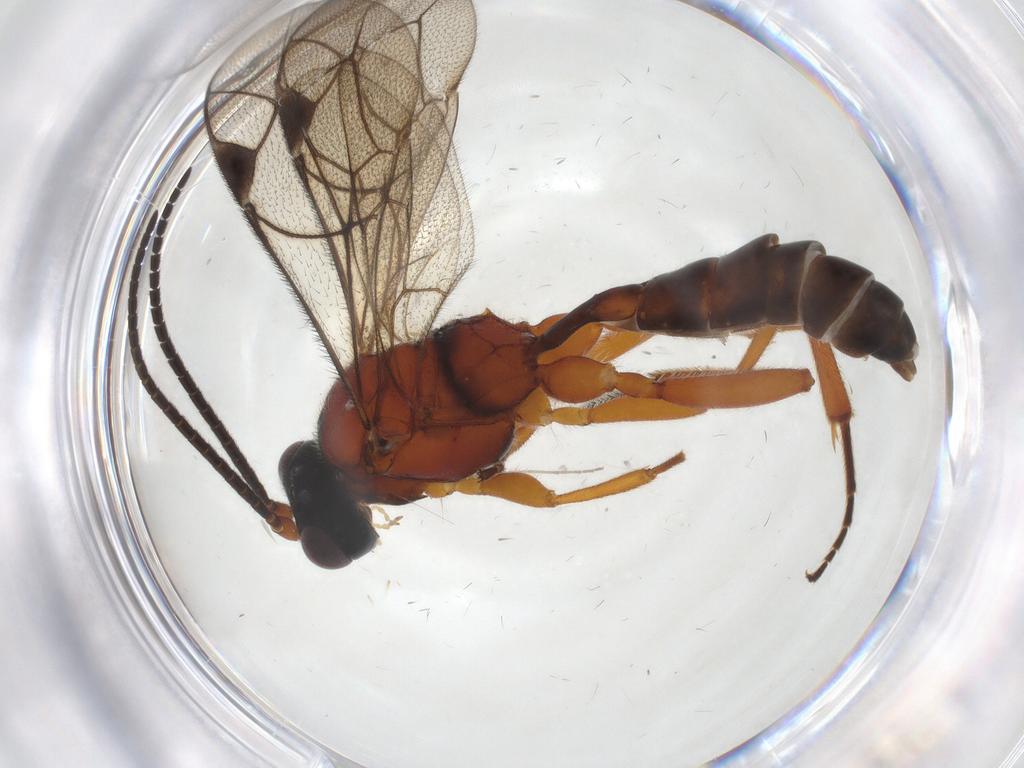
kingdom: Animalia
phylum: Arthropoda
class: Insecta
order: Hymenoptera
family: Ichneumonidae
